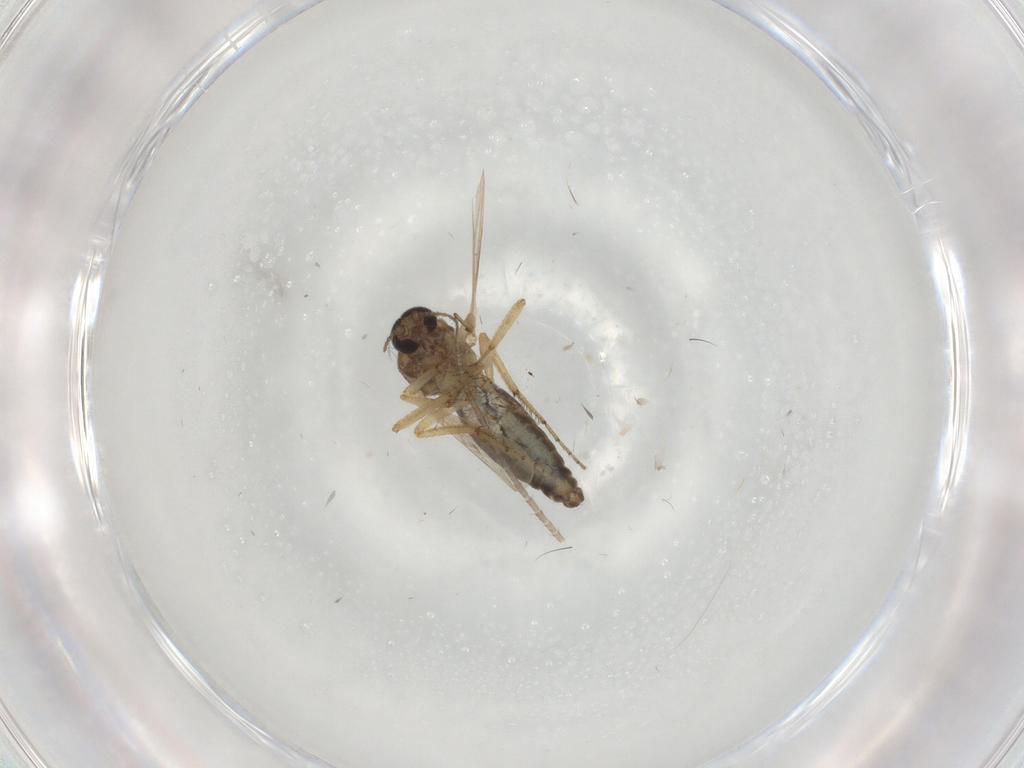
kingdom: Animalia
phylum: Arthropoda
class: Insecta
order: Diptera
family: Ceratopogonidae
